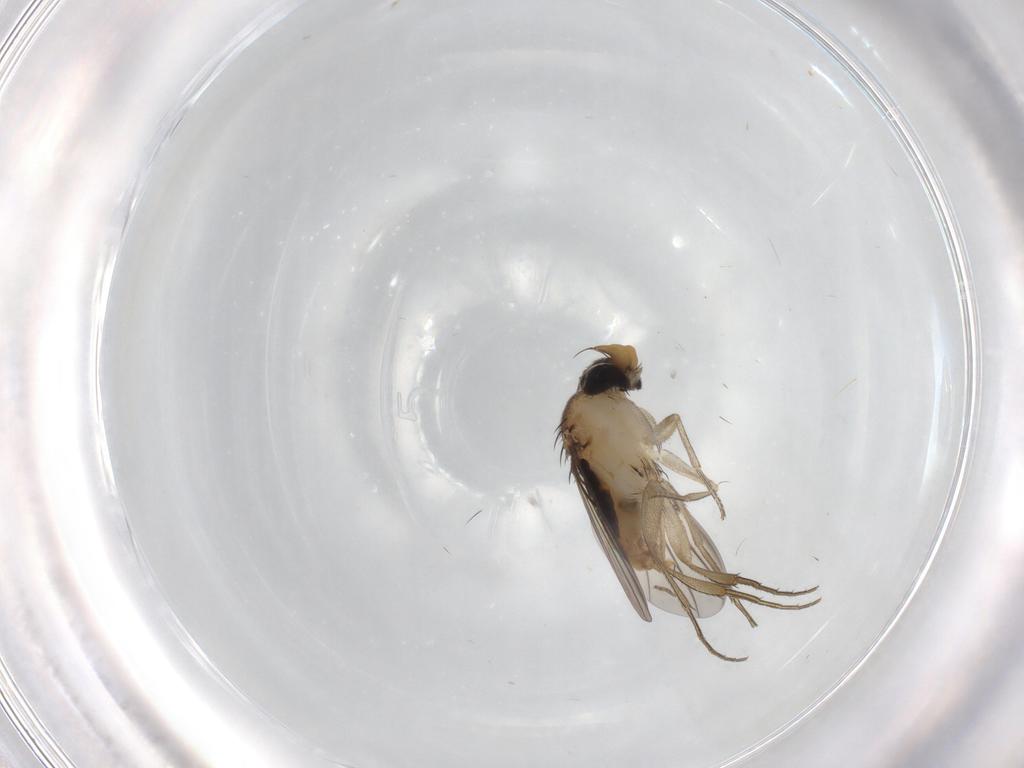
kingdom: Animalia
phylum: Arthropoda
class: Insecta
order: Diptera
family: Phoridae
